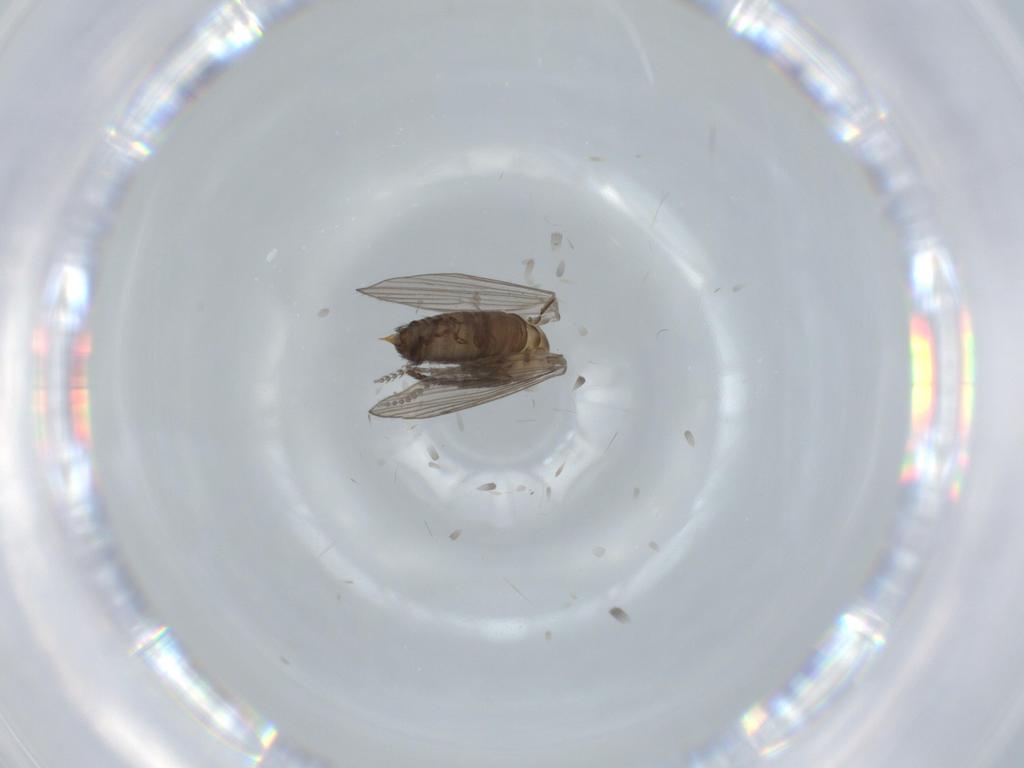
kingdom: Animalia
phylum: Arthropoda
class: Insecta
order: Diptera
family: Psychodidae
